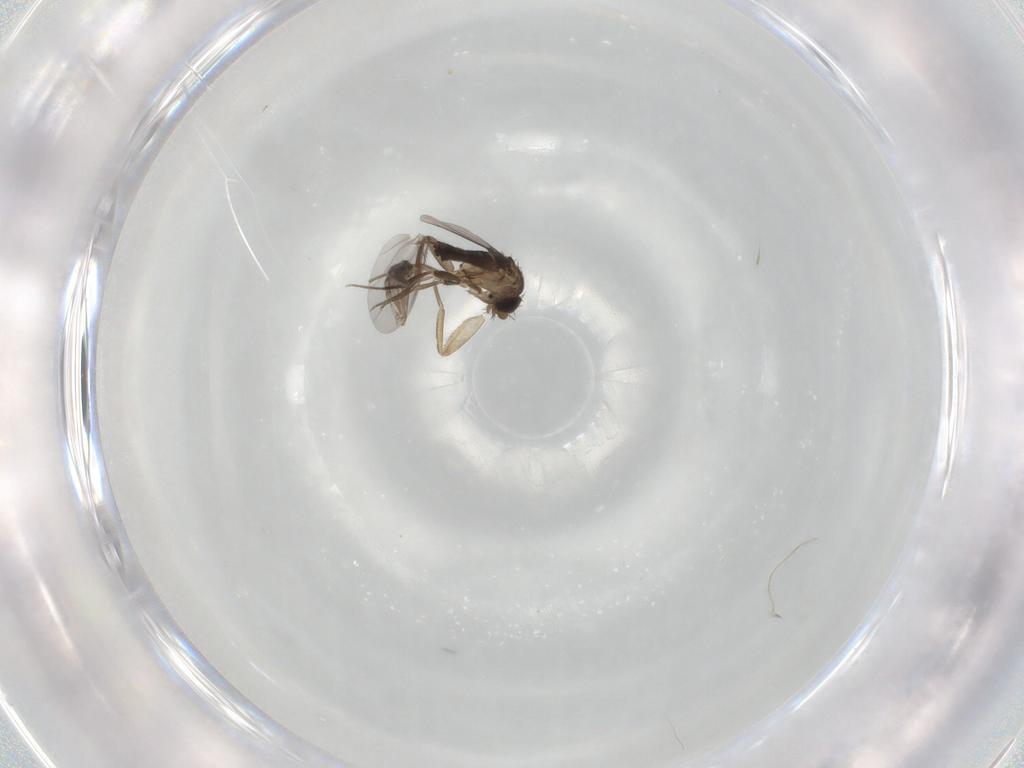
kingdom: Animalia
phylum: Arthropoda
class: Insecta
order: Diptera
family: Phoridae
